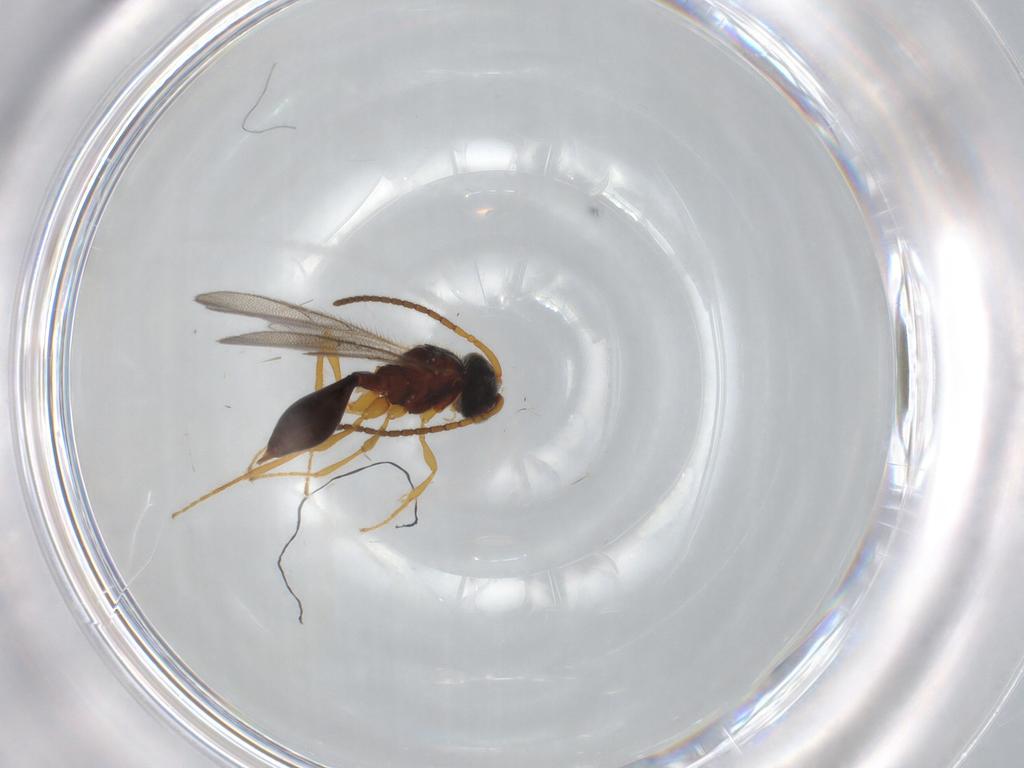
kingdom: Animalia
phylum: Arthropoda
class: Insecta
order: Hymenoptera
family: Diapriidae
